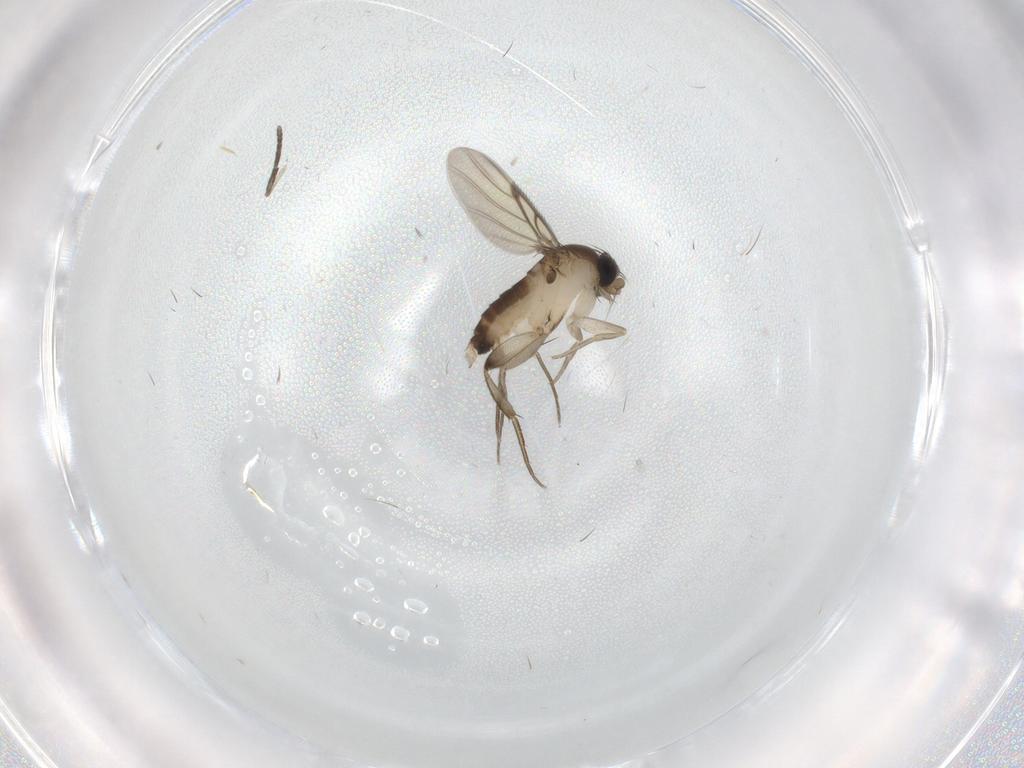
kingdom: Animalia
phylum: Arthropoda
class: Insecta
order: Diptera
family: Phoridae
